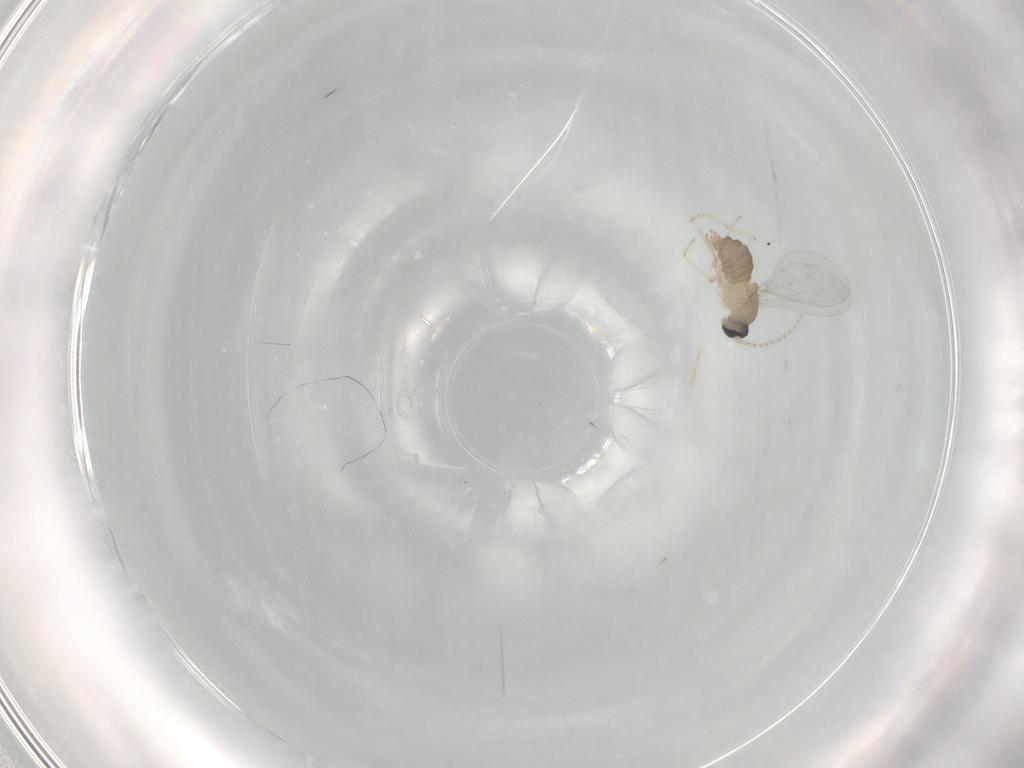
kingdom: Animalia
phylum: Arthropoda
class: Insecta
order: Diptera
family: Cecidomyiidae
